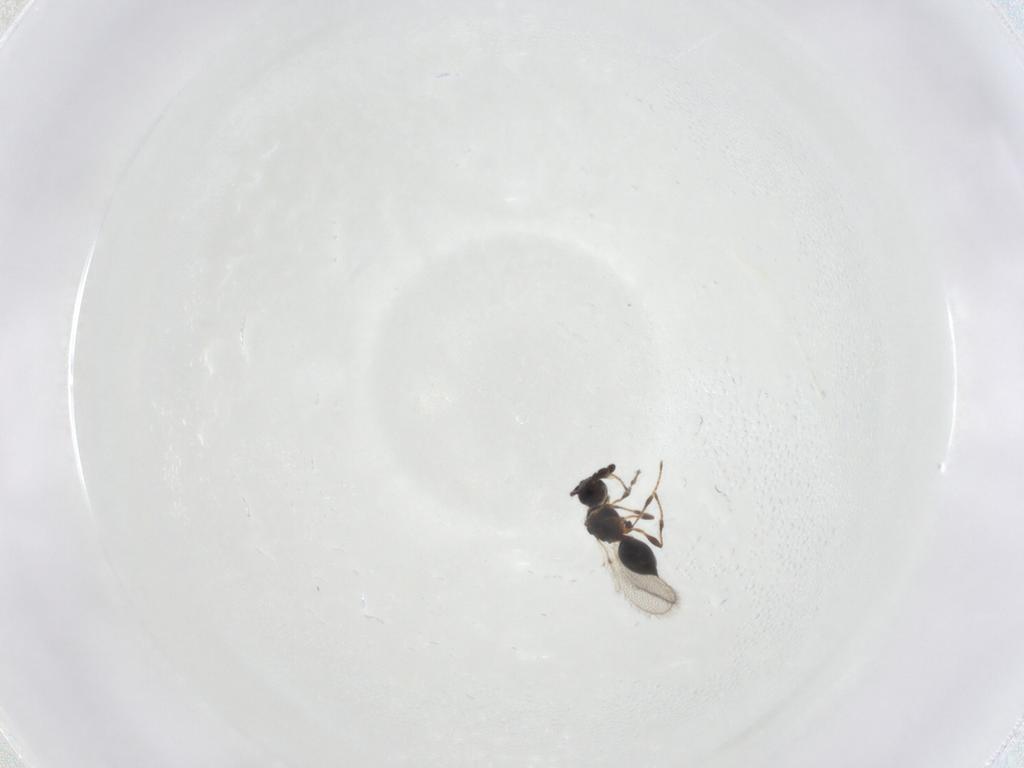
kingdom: Animalia
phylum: Arthropoda
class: Insecta
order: Hymenoptera
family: Diapriidae
